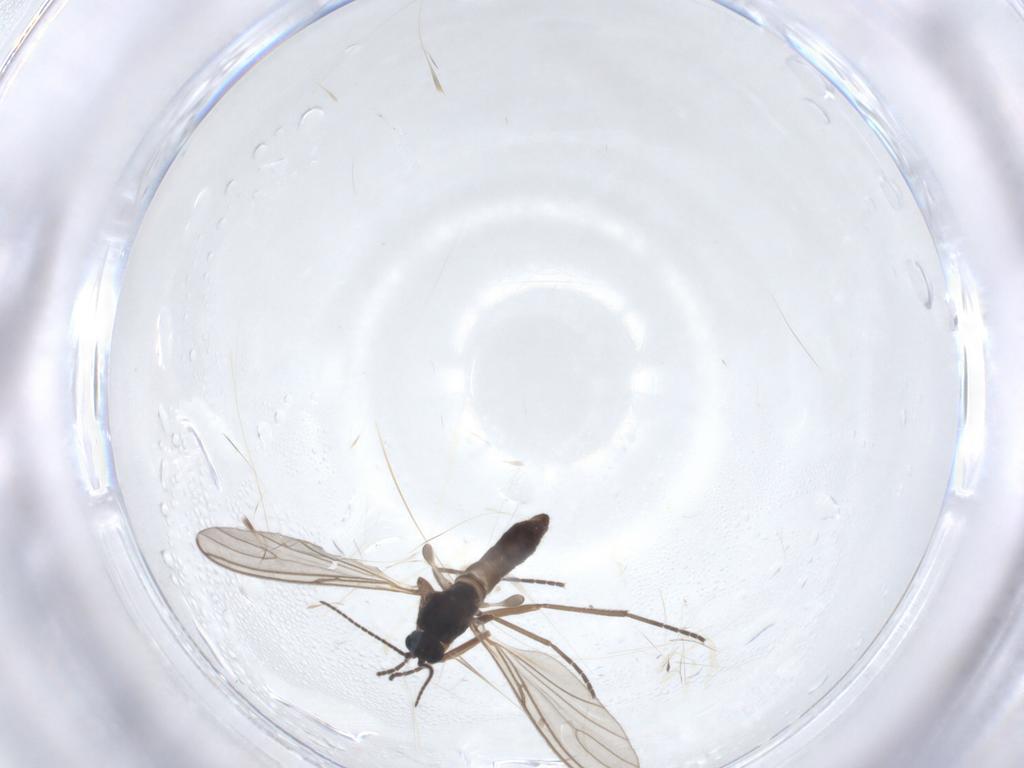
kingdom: Animalia
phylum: Arthropoda
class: Insecta
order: Diptera
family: Sciaridae
